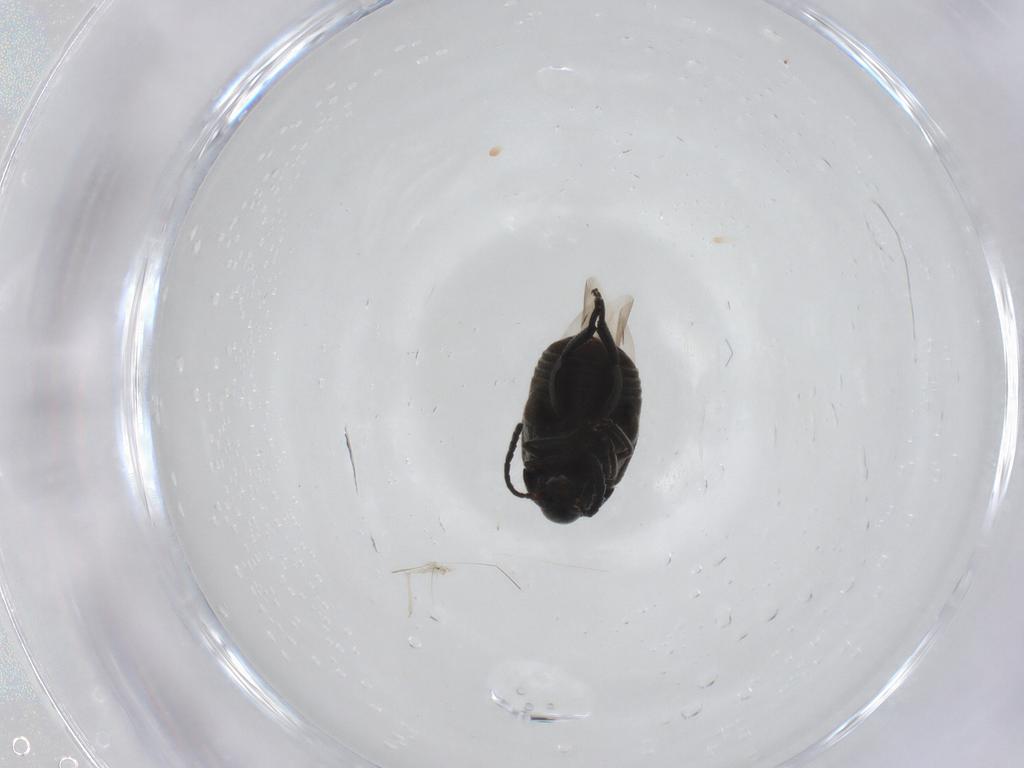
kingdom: Animalia
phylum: Arthropoda
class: Insecta
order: Coleoptera
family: Chrysomelidae
